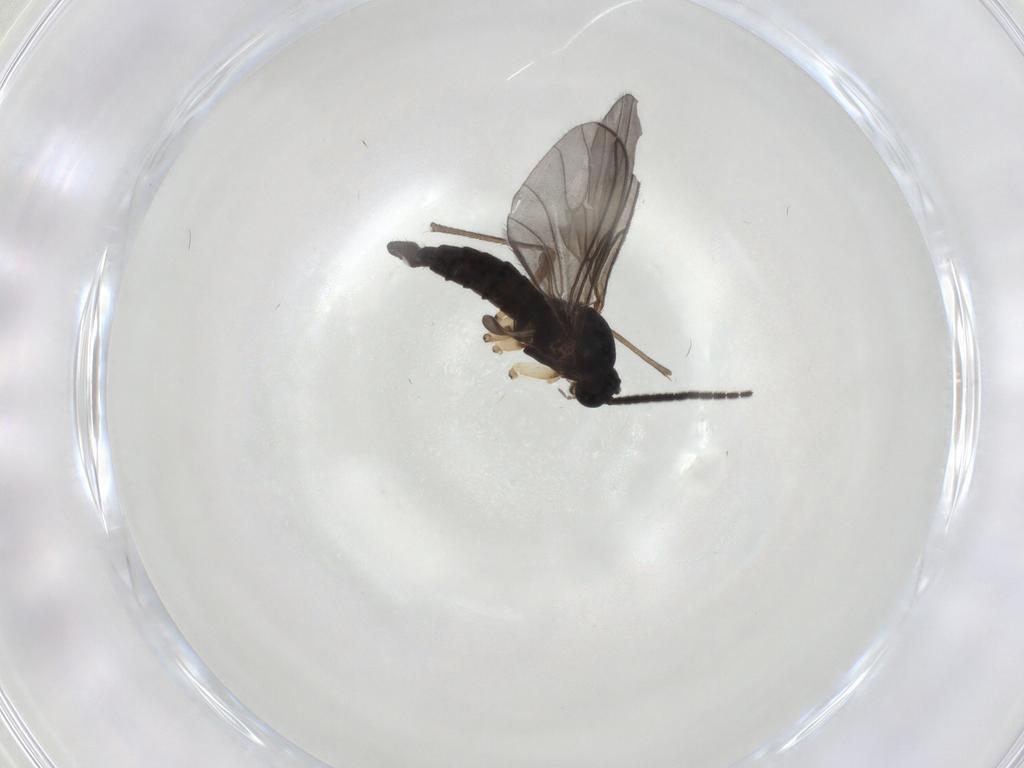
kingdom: Animalia
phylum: Arthropoda
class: Insecta
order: Diptera
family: Sciaridae
